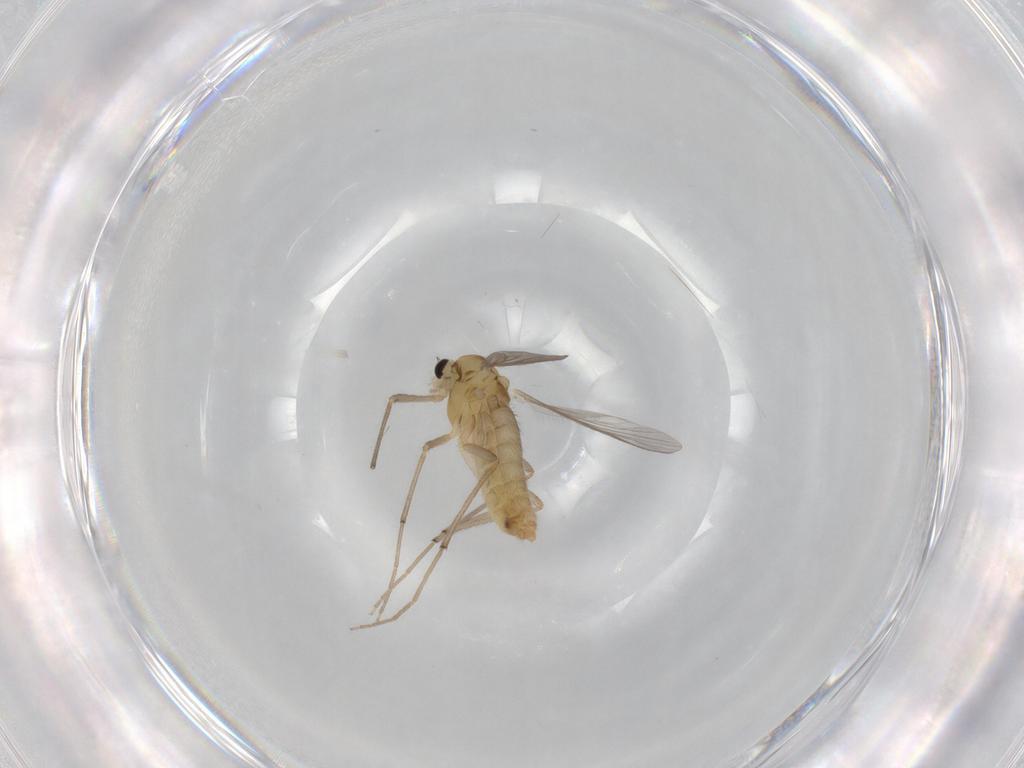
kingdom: Animalia
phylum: Arthropoda
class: Insecta
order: Diptera
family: Chironomidae
